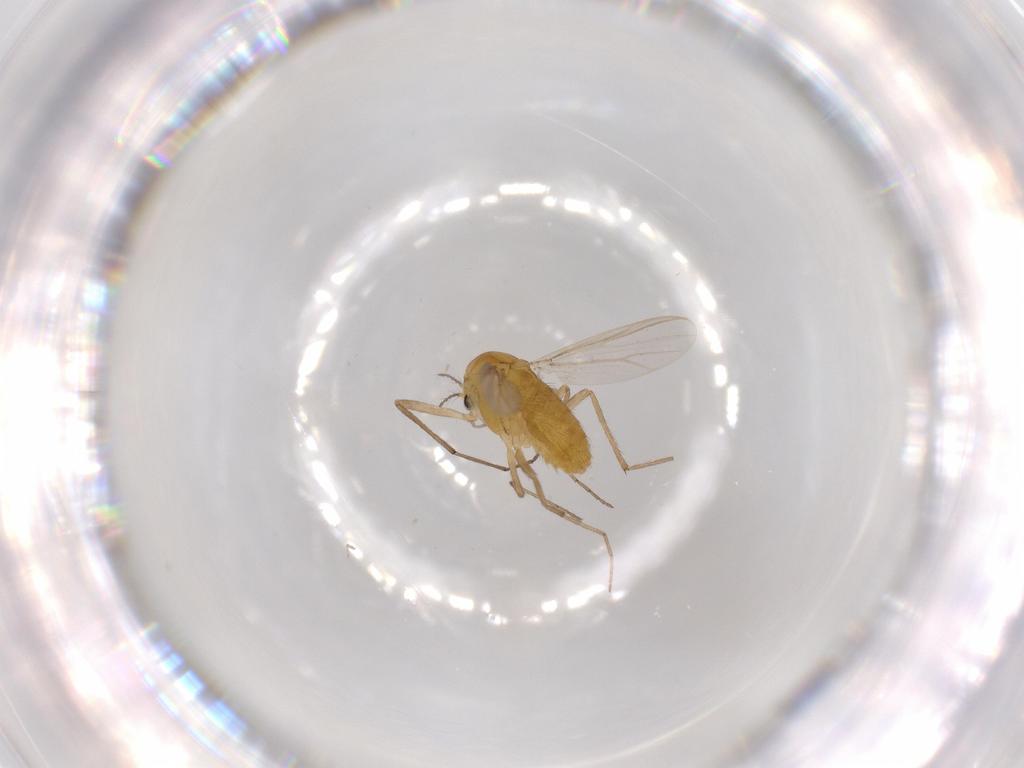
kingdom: Animalia
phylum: Arthropoda
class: Insecta
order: Diptera
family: Chironomidae
